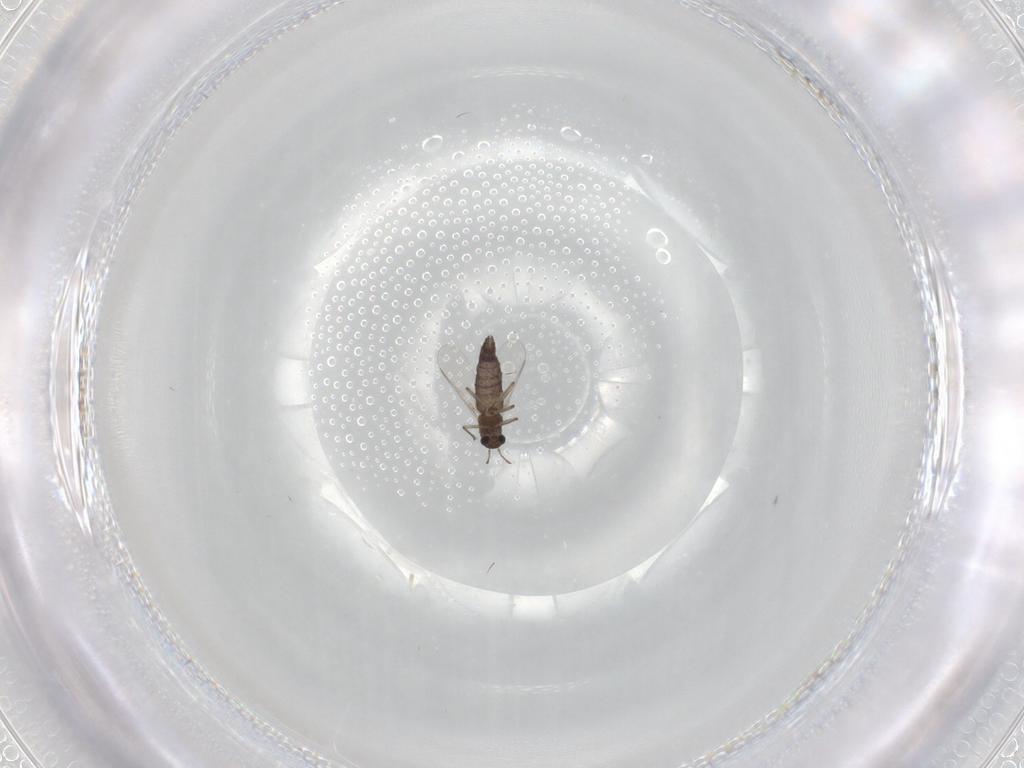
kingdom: Animalia
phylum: Arthropoda
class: Insecta
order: Diptera
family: Chironomidae
